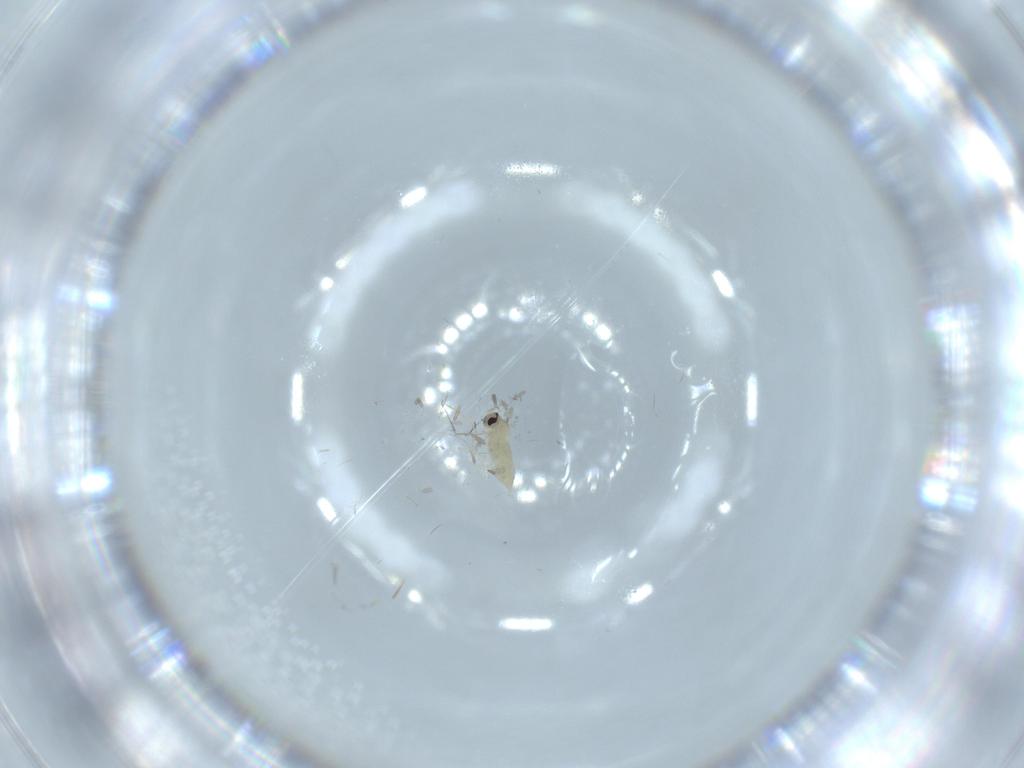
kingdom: Animalia
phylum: Arthropoda
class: Insecta
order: Diptera
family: Cecidomyiidae
